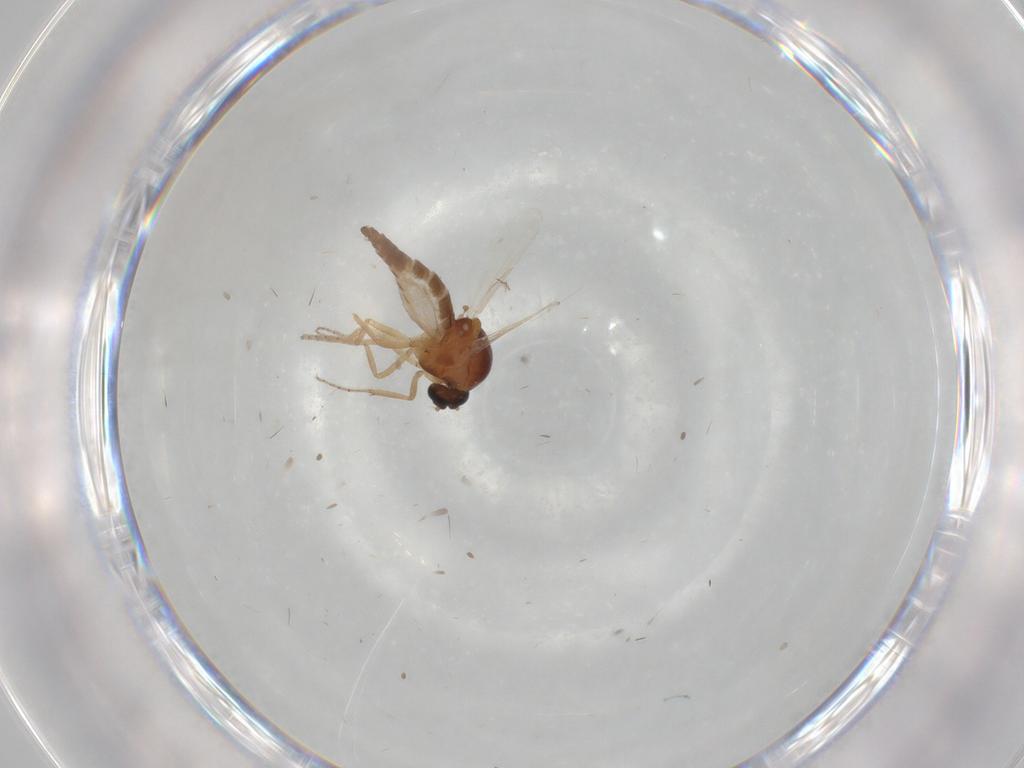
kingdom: Animalia
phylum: Arthropoda
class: Insecta
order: Diptera
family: Ceratopogonidae
